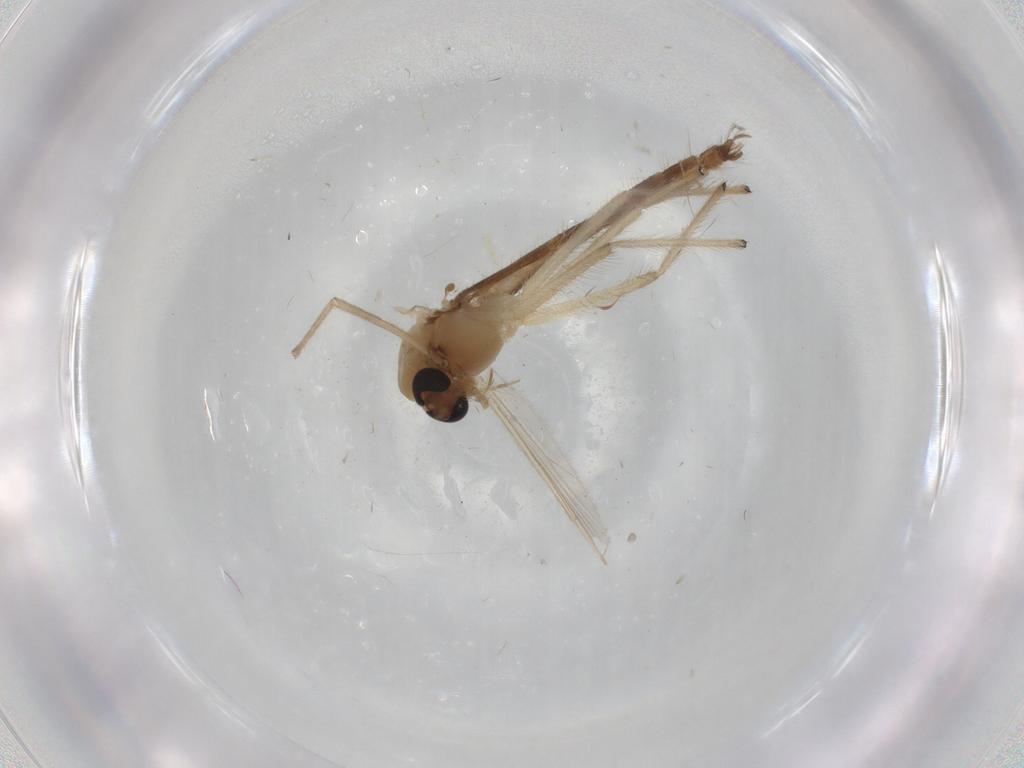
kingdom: Animalia
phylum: Arthropoda
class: Insecta
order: Diptera
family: Chironomidae
